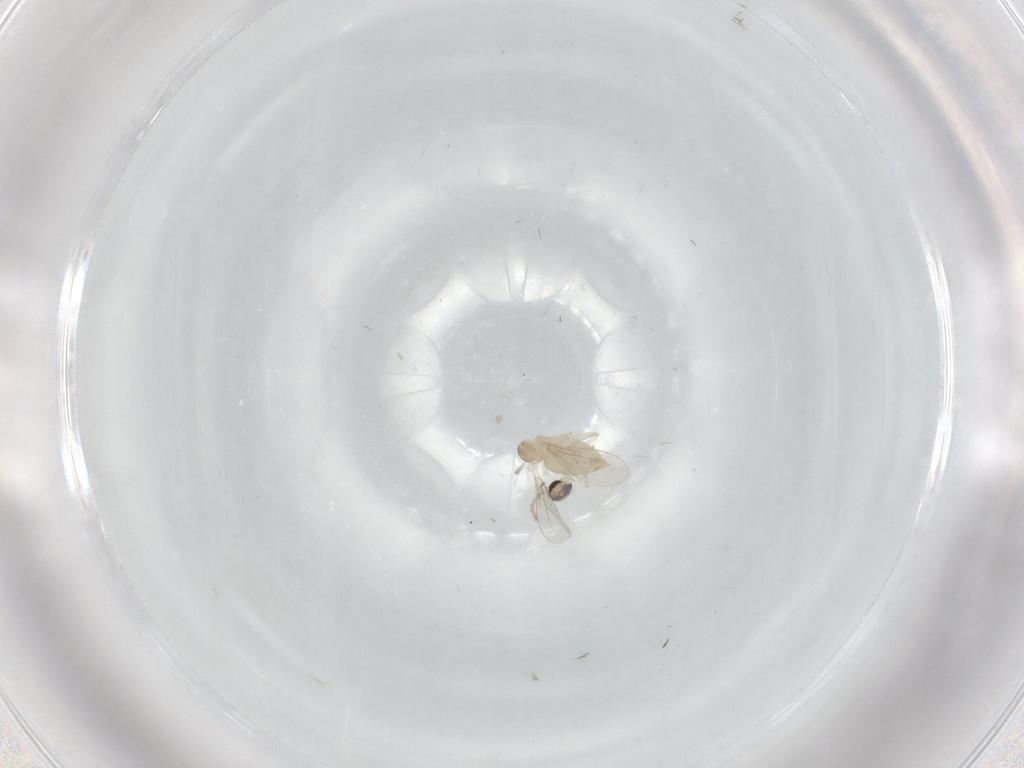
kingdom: Animalia
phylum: Arthropoda
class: Insecta
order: Diptera
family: Cecidomyiidae
